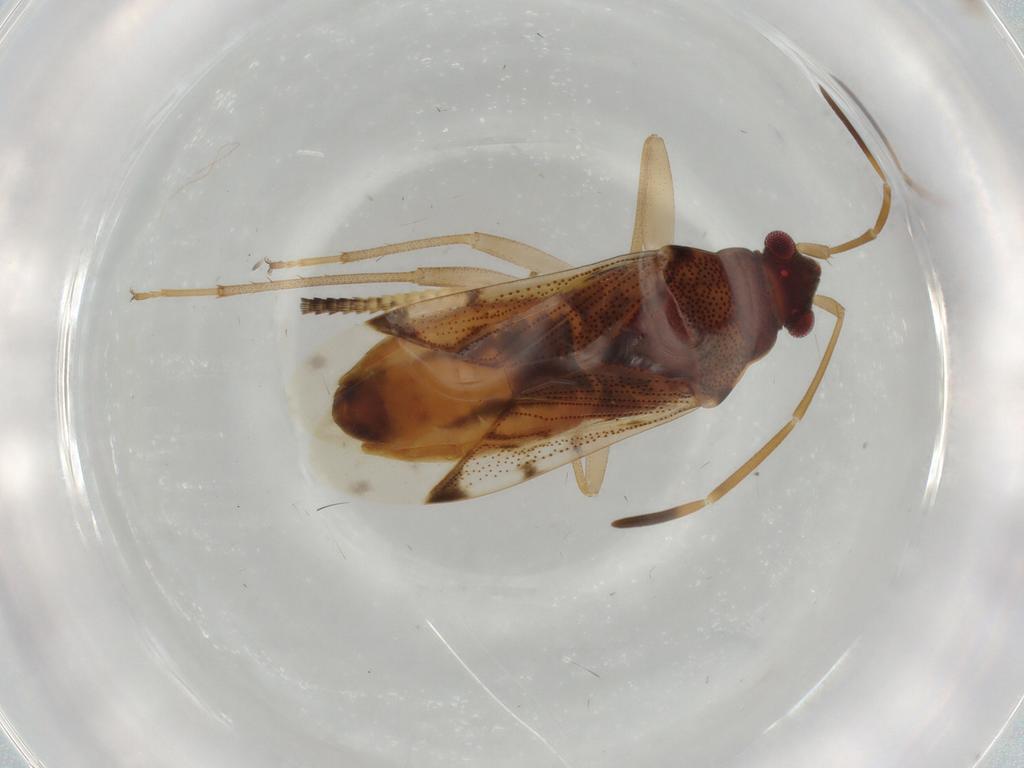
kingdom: Animalia
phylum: Arthropoda
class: Insecta
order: Hemiptera
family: Rhyparochromidae
